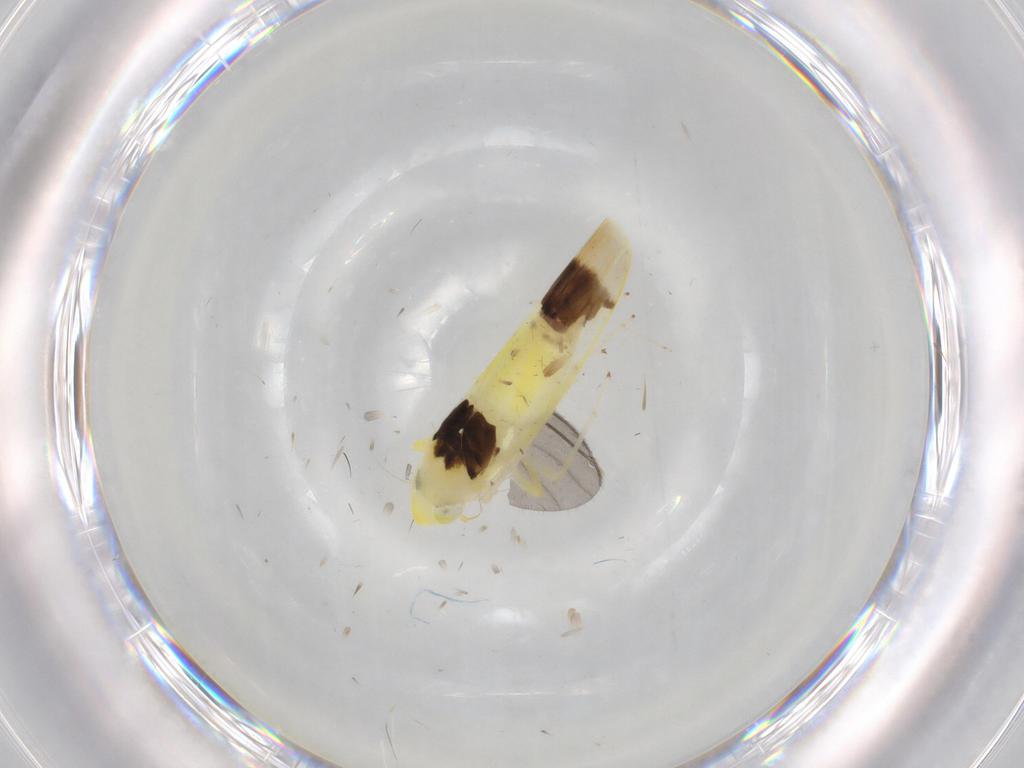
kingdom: Animalia
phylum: Arthropoda
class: Insecta
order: Hemiptera
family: Cicadellidae
